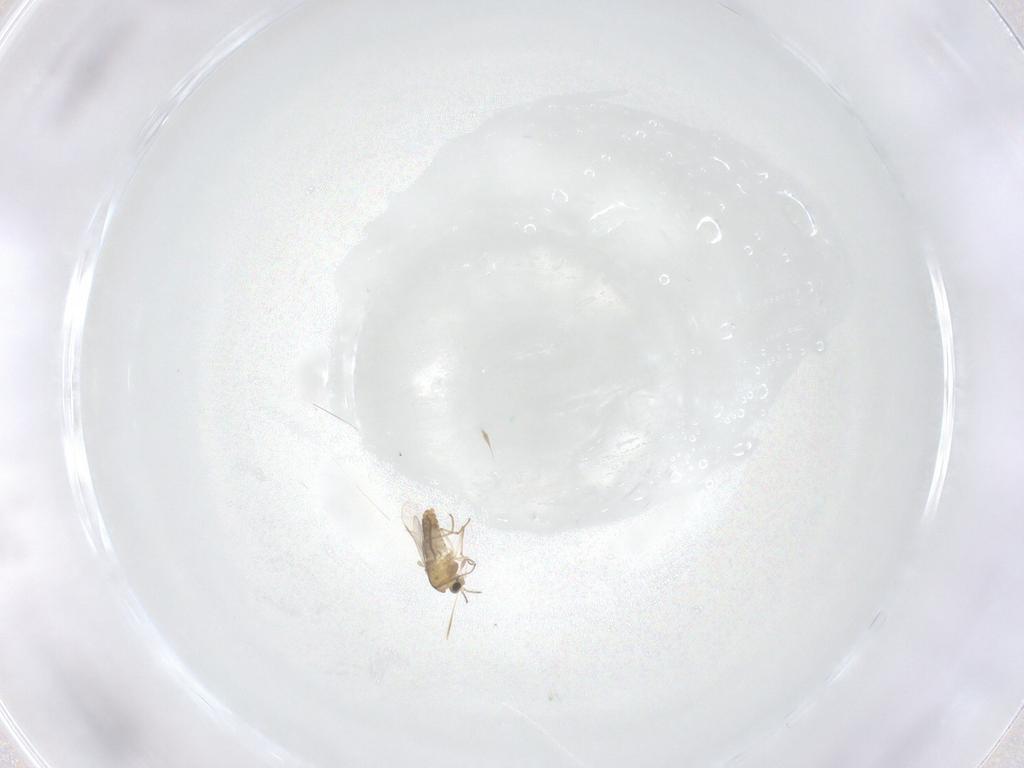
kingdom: Animalia
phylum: Arthropoda
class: Insecta
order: Diptera
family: Chironomidae
